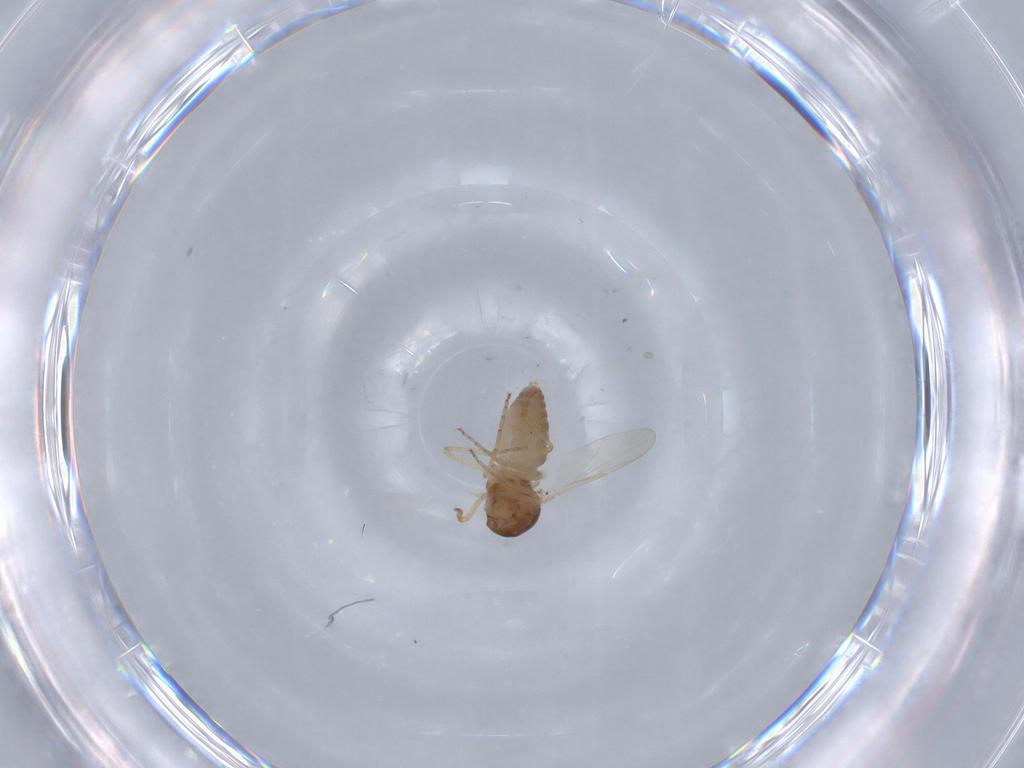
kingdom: Animalia
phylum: Arthropoda
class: Insecta
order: Diptera
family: Ceratopogonidae
